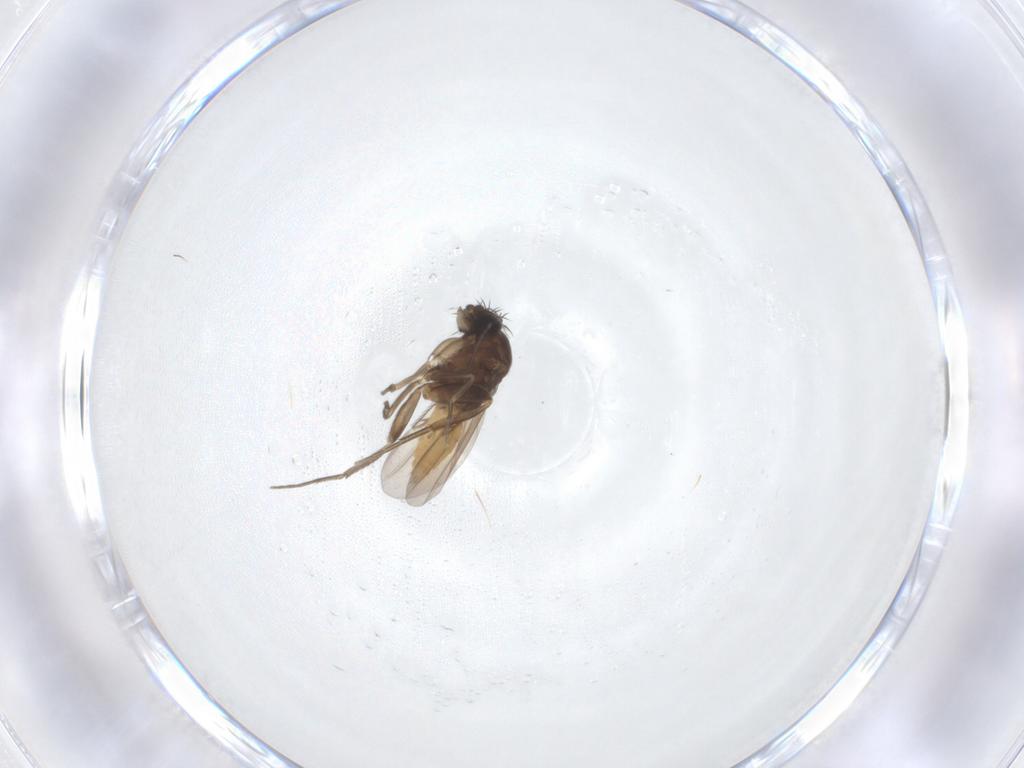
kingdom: Animalia
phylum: Arthropoda
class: Insecta
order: Diptera
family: Phoridae
